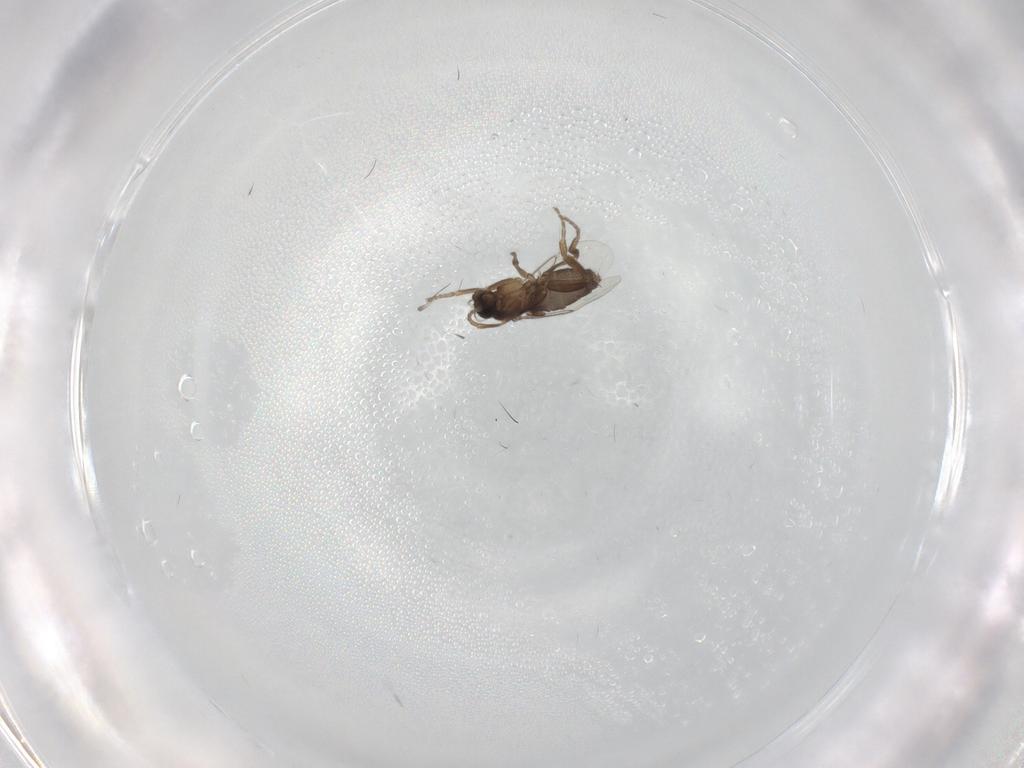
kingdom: Animalia
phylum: Arthropoda
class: Insecta
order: Diptera
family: Phoridae
